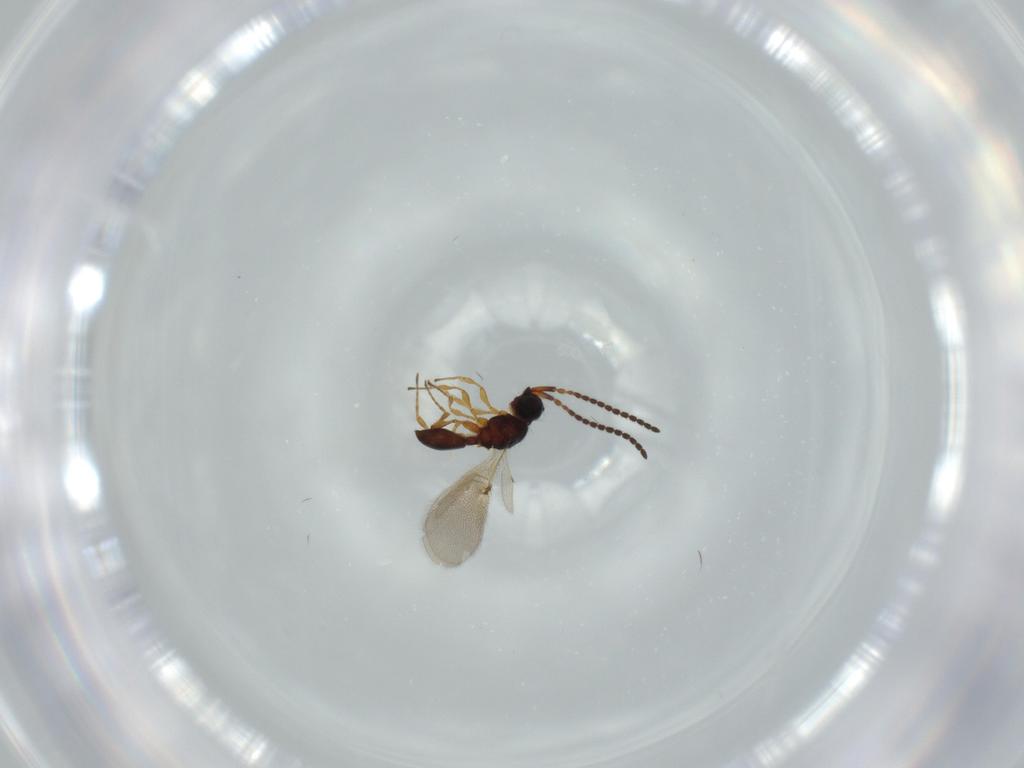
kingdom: Animalia
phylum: Arthropoda
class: Insecta
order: Hymenoptera
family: Diapriidae
